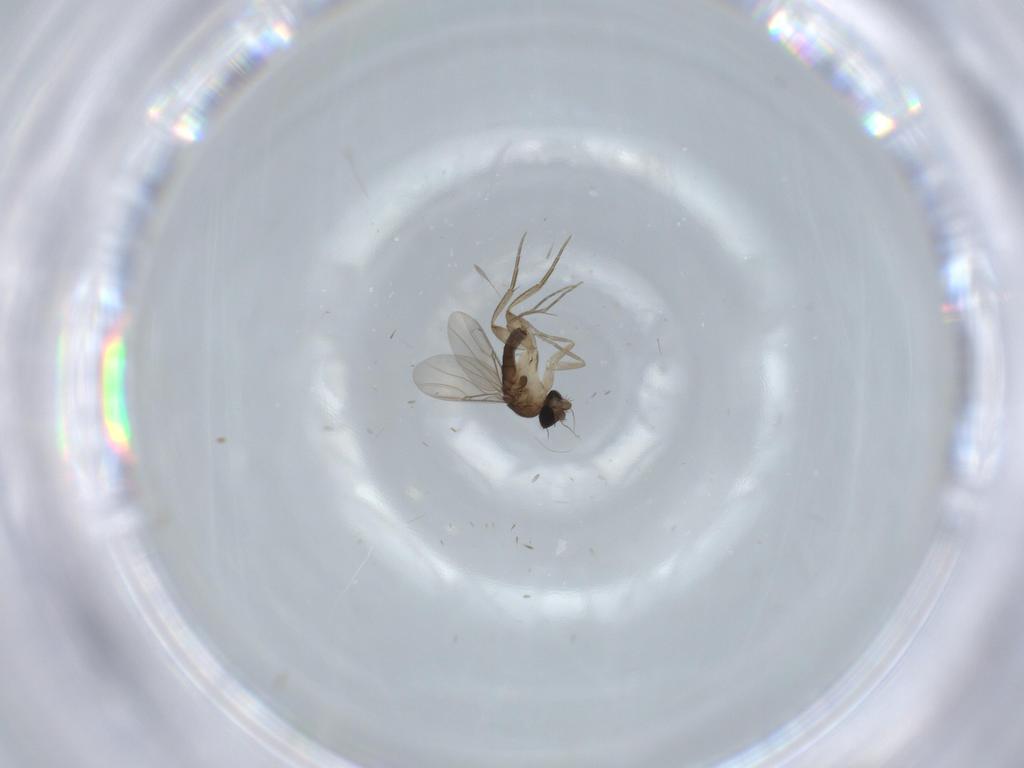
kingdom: Animalia
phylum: Arthropoda
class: Insecta
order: Diptera
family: Phoridae
